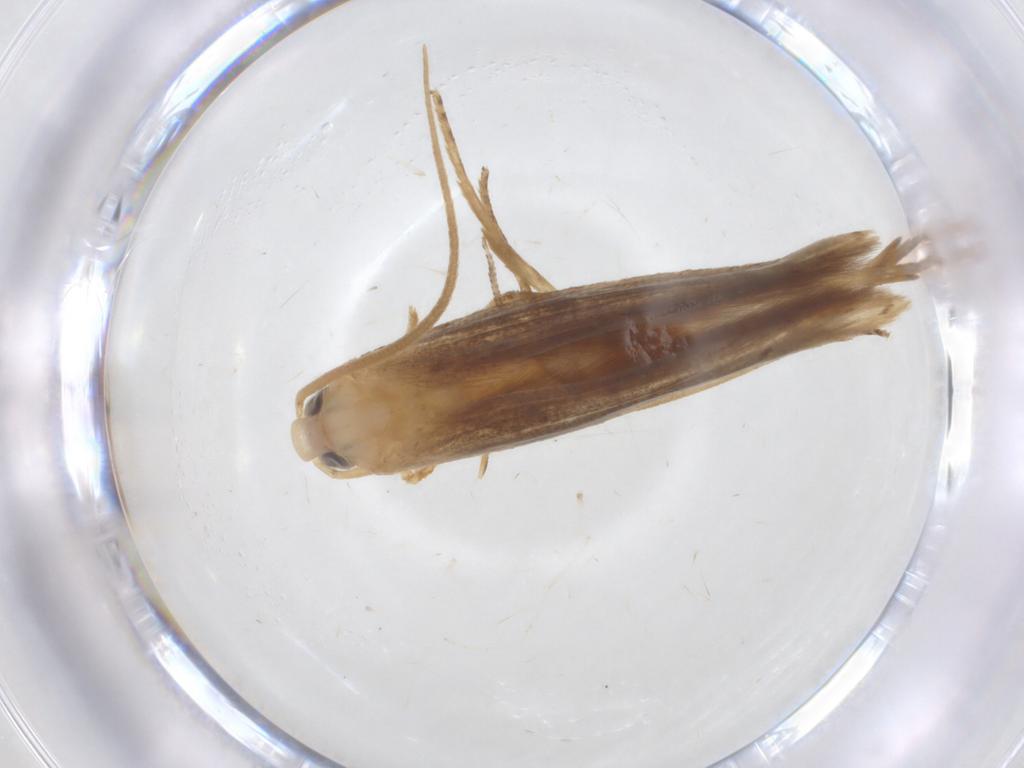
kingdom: Animalia
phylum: Arthropoda
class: Insecta
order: Lepidoptera
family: Batrachedridae
